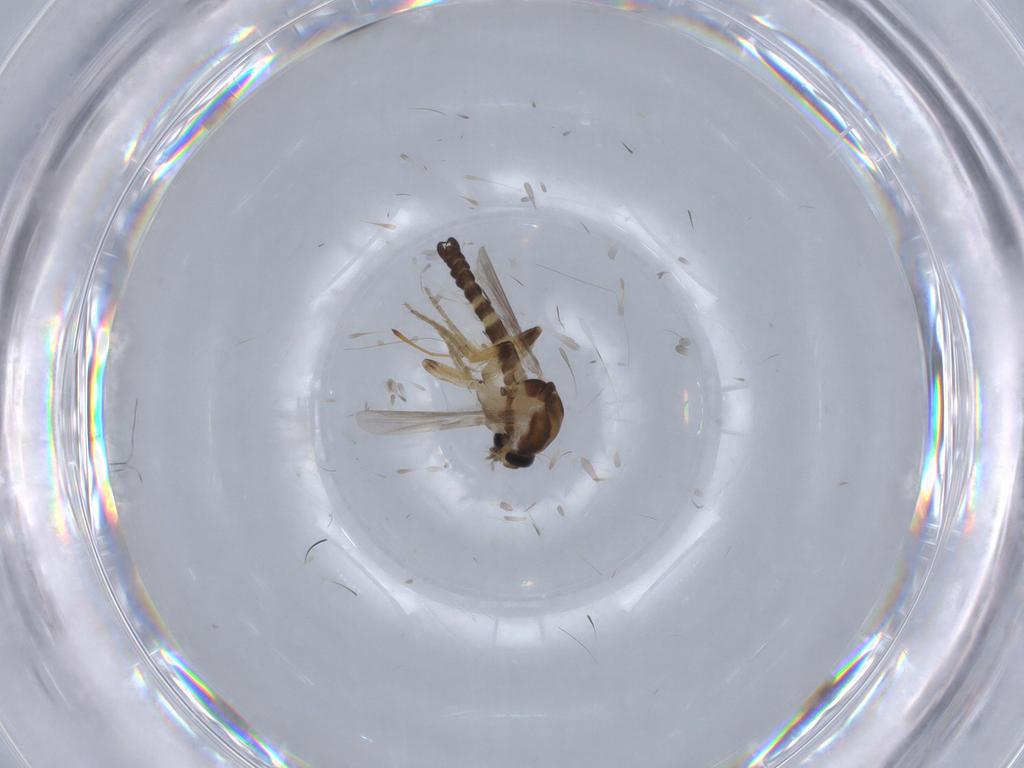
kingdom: Animalia
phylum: Arthropoda
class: Insecta
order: Diptera
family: Ceratopogonidae
